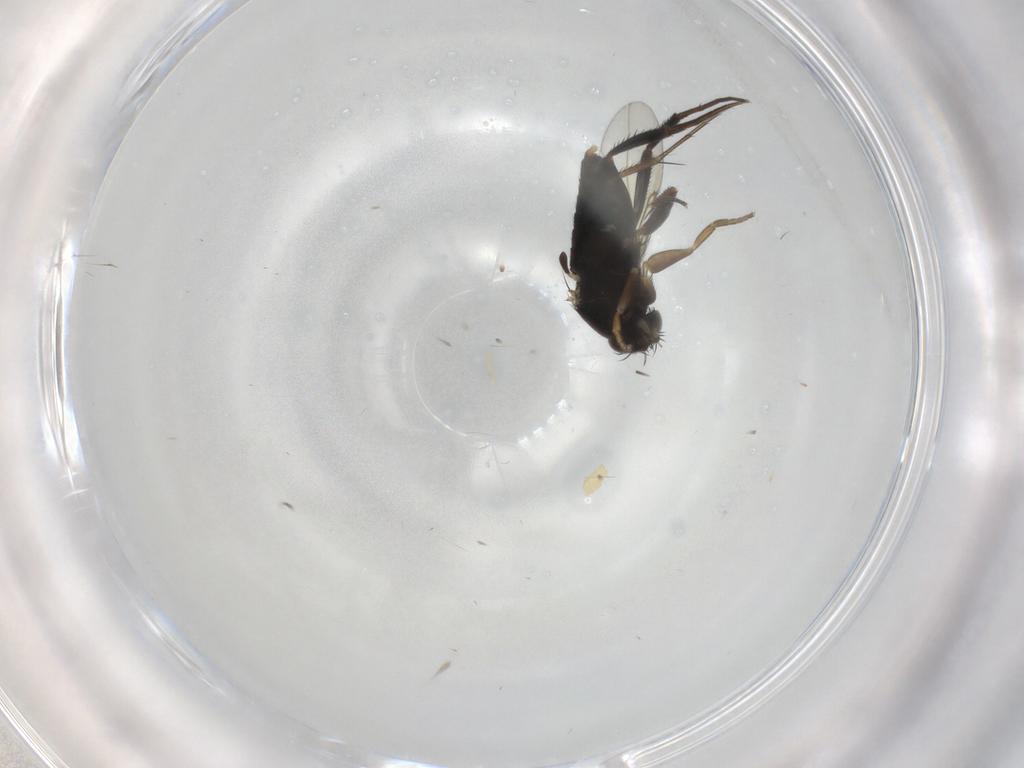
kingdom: Animalia
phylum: Arthropoda
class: Insecta
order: Diptera
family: Phoridae
